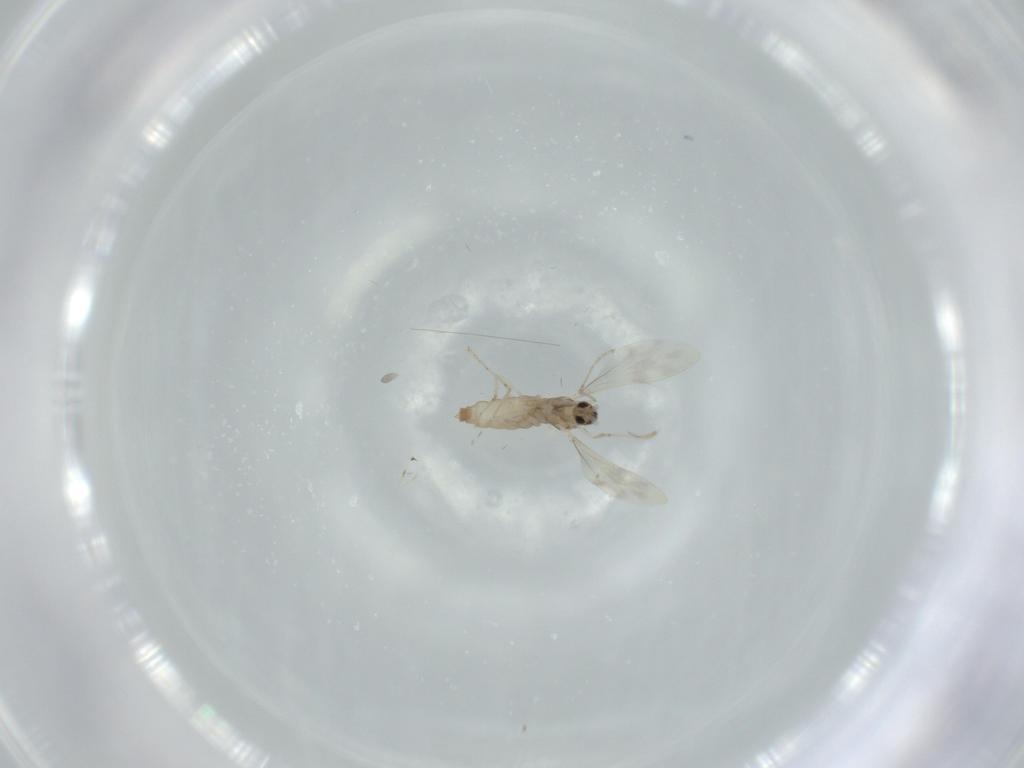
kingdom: Animalia
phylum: Arthropoda
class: Insecta
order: Diptera
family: Cecidomyiidae
